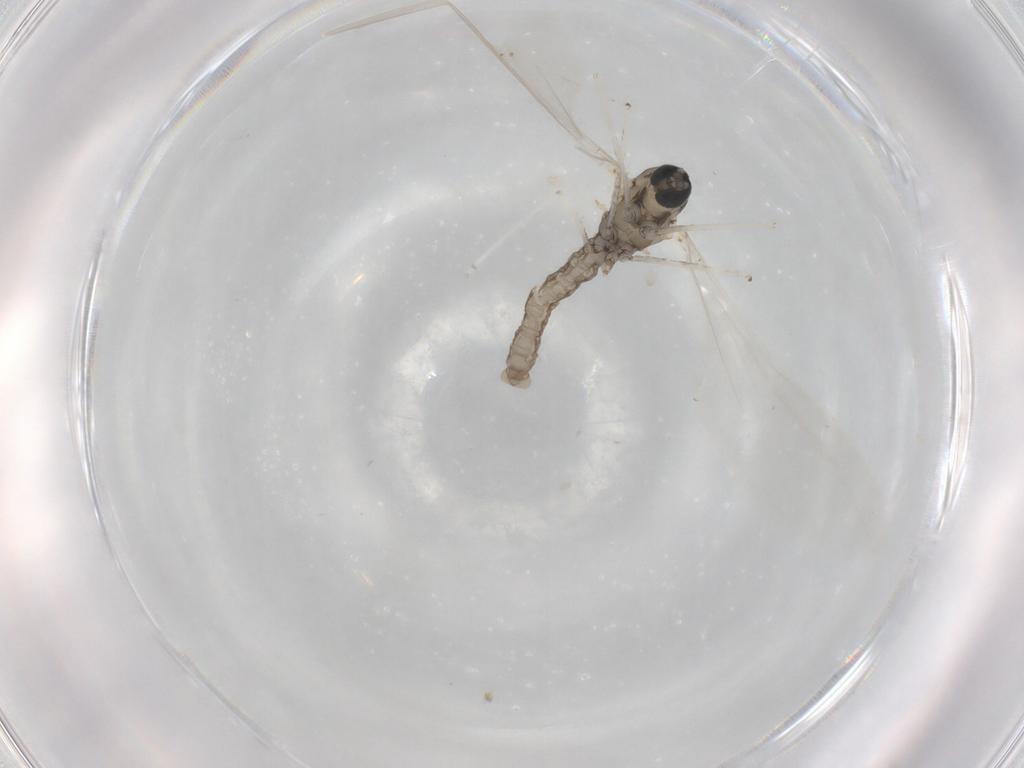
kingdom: Animalia
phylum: Arthropoda
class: Insecta
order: Diptera
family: Cecidomyiidae
